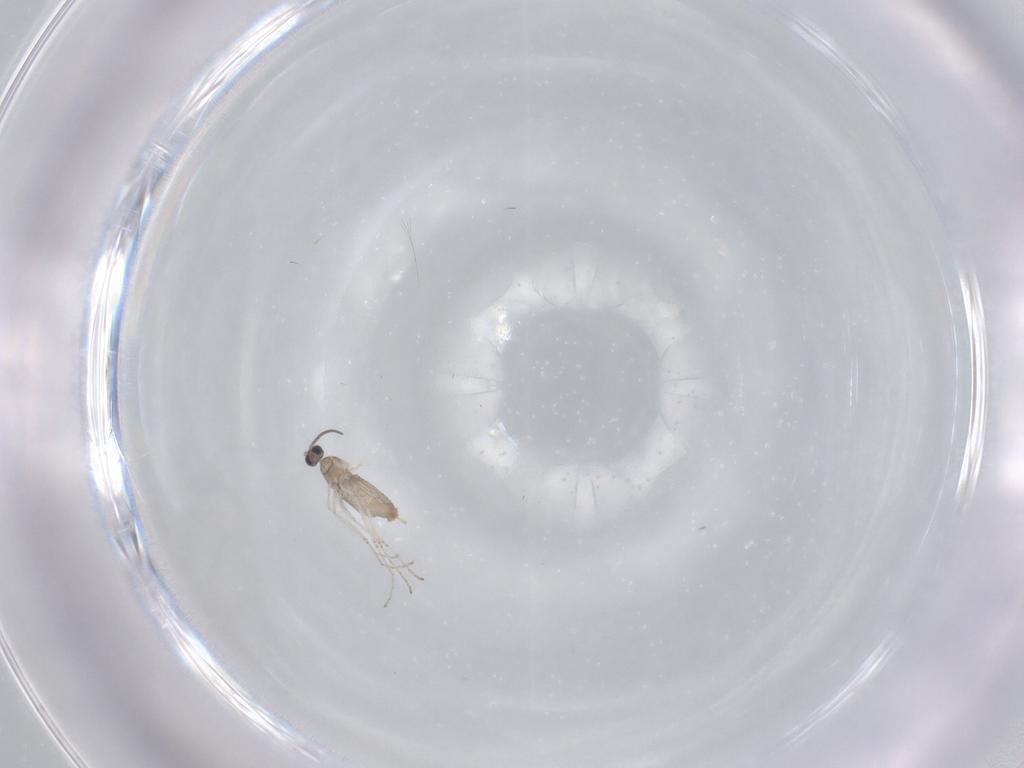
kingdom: Animalia
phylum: Arthropoda
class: Insecta
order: Diptera
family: Cecidomyiidae
